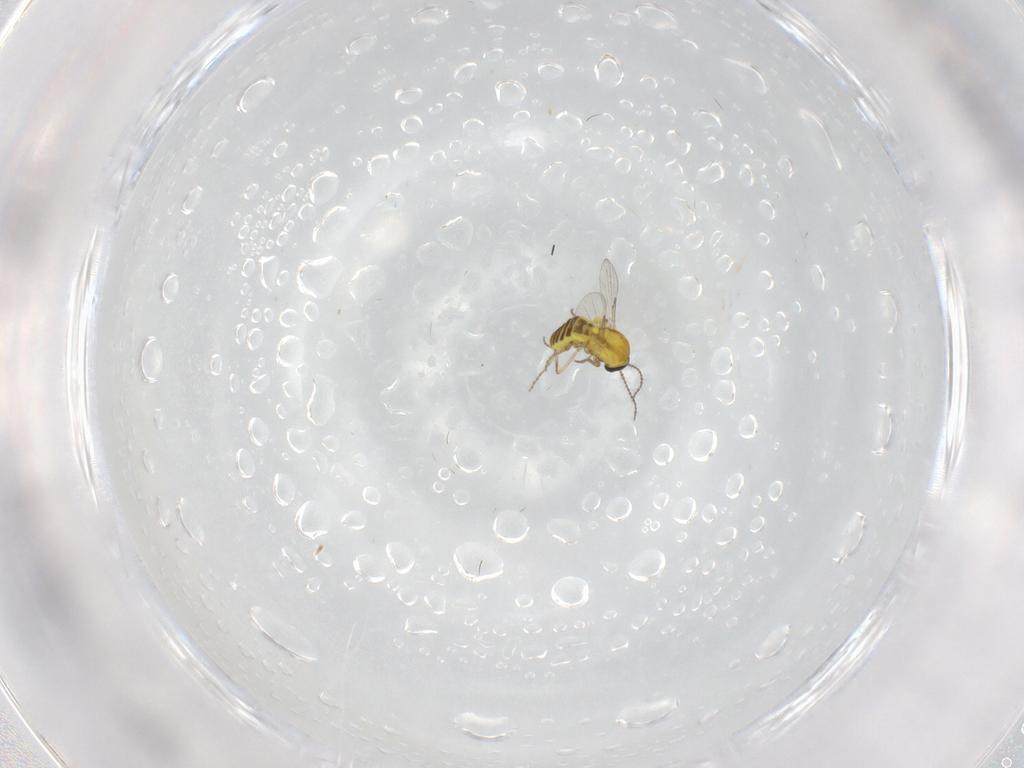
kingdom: Animalia
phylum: Arthropoda
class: Insecta
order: Diptera
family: Ceratopogonidae
